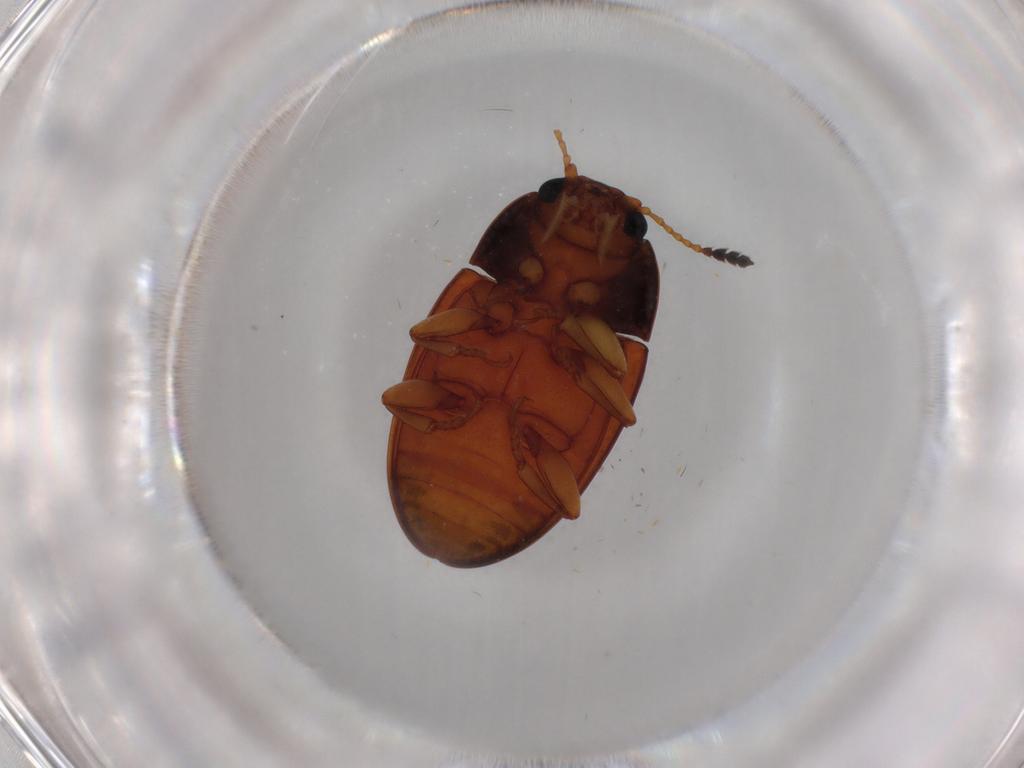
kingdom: Animalia
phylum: Arthropoda
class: Insecta
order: Coleoptera
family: Erotylidae
